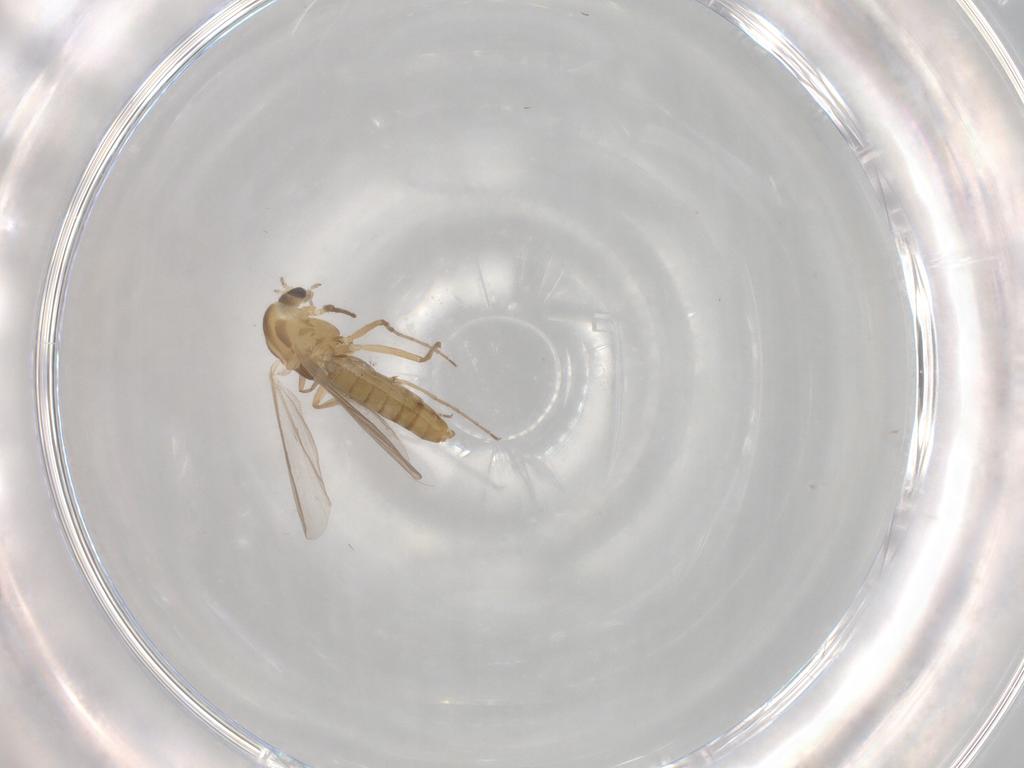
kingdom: Animalia
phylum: Arthropoda
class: Insecta
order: Diptera
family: Chironomidae
